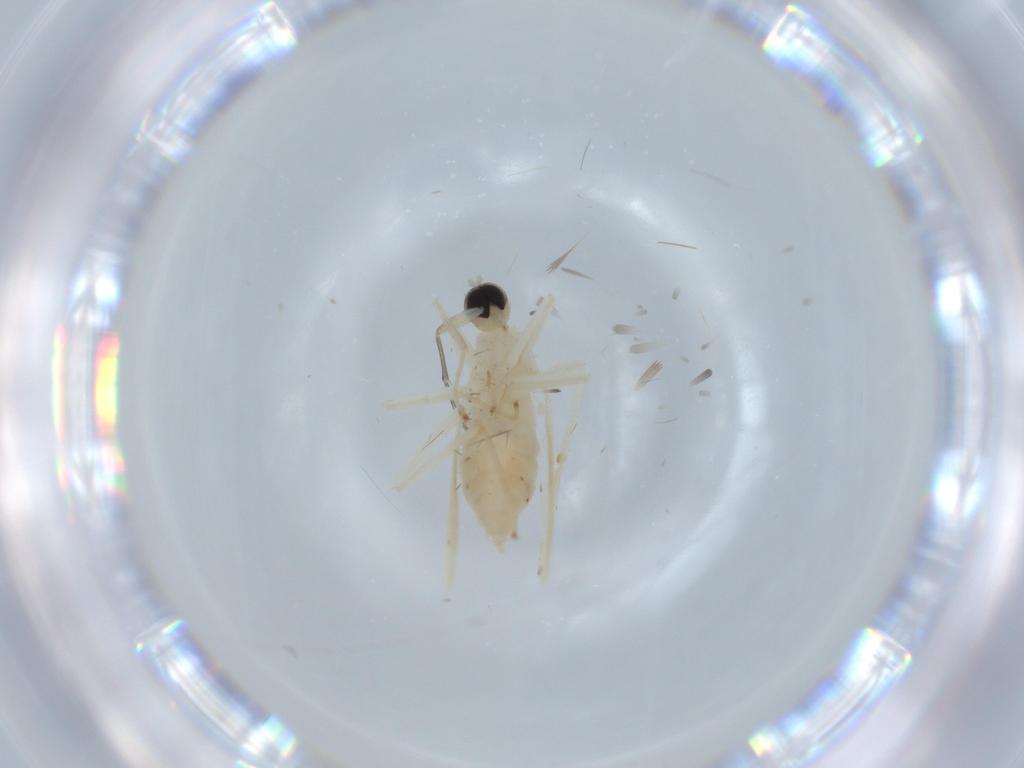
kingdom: Animalia
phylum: Arthropoda
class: Insecta
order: Diptera
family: Hybotidae
